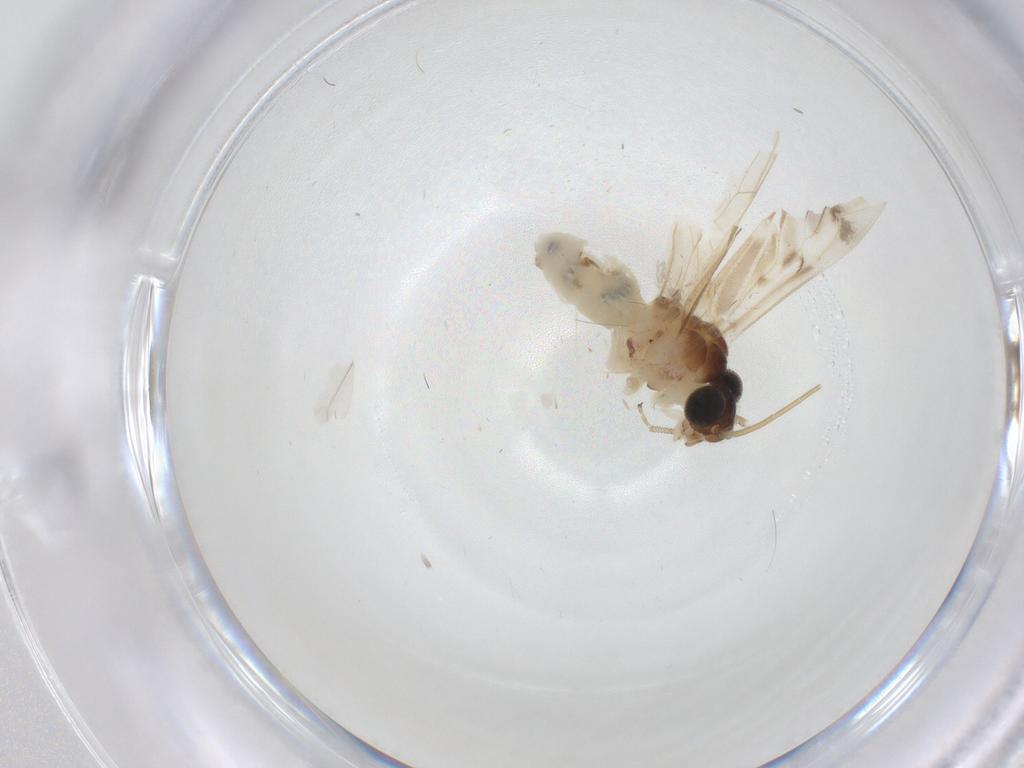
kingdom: Animalia
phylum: Arthropoda
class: Insecta
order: Psocodea
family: Caeciliusidae
